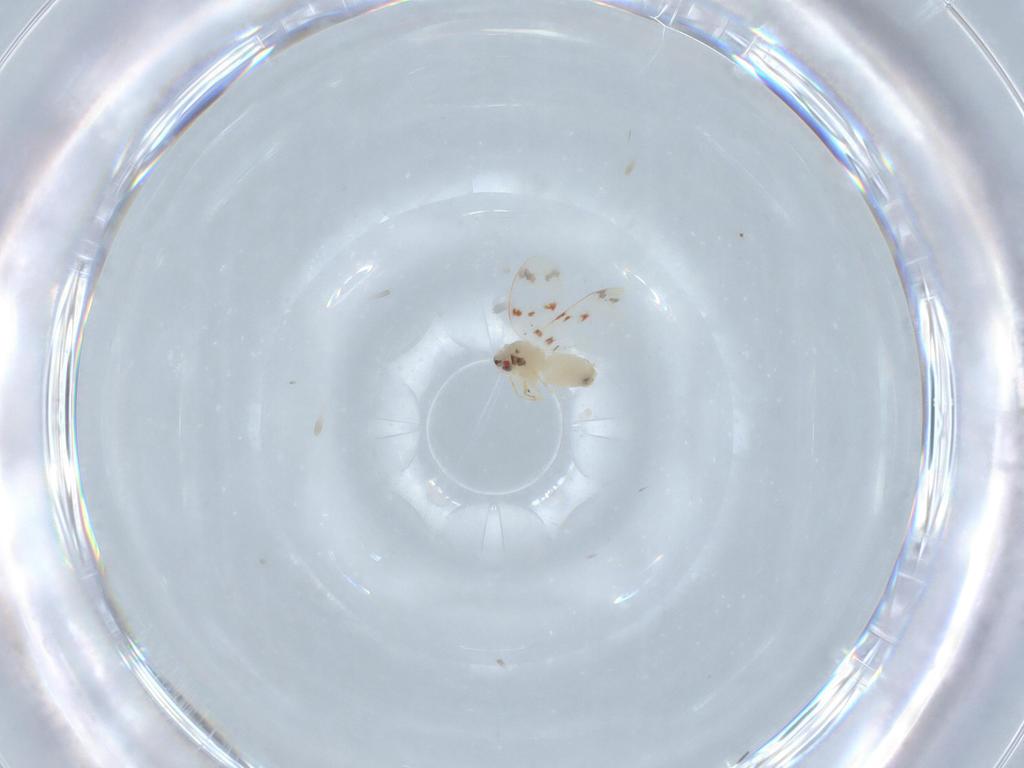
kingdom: Animalia
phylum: Arthropoda
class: Insecta
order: Hemiptera
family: Aleyrodidae
